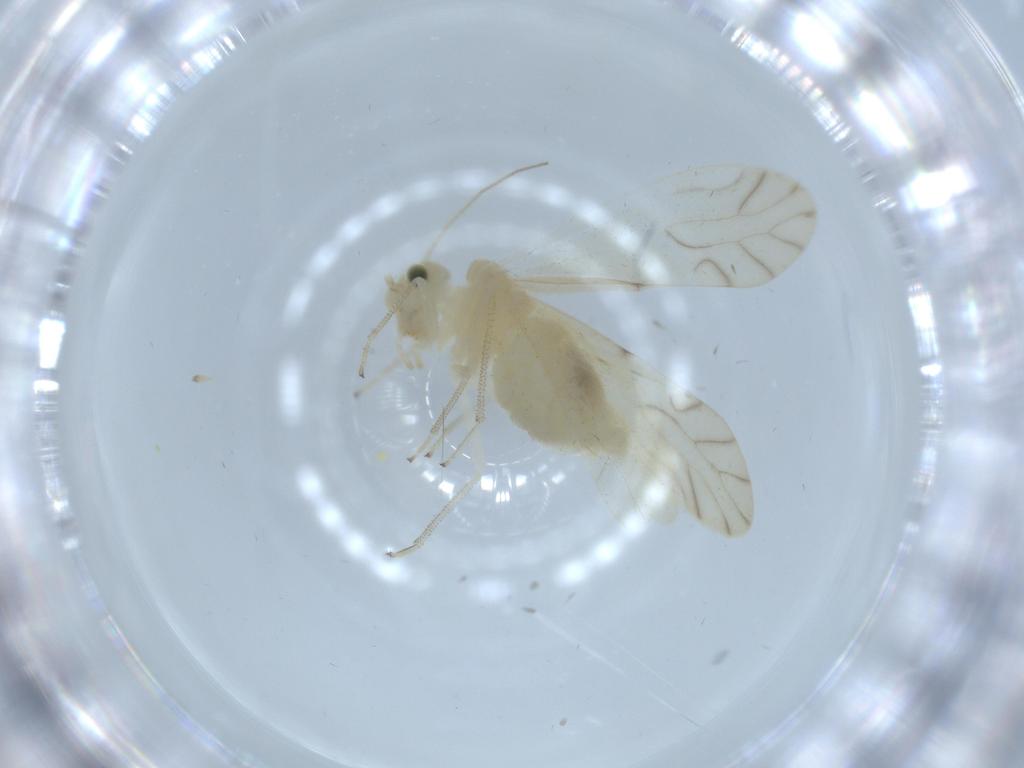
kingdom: Animalia
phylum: Arthropoda
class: Insecta
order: Psocodea
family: Caeciliusidae
